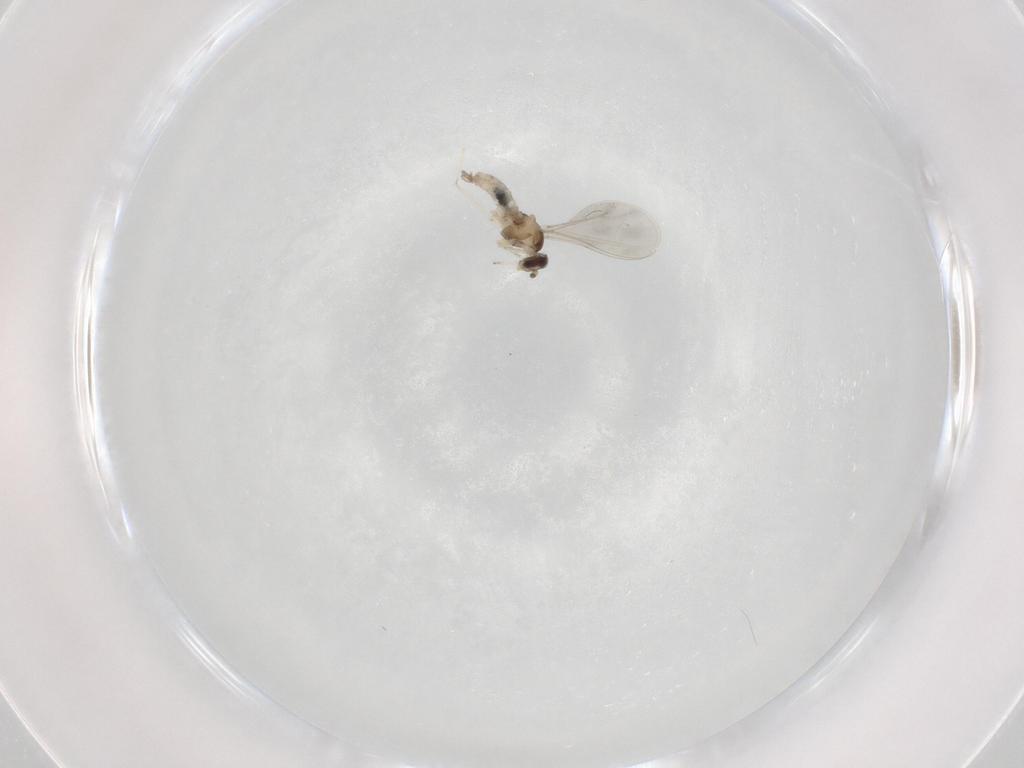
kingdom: Animalia
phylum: Arthropoda
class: Insecta
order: Diptera
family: Cecidomyiidae
